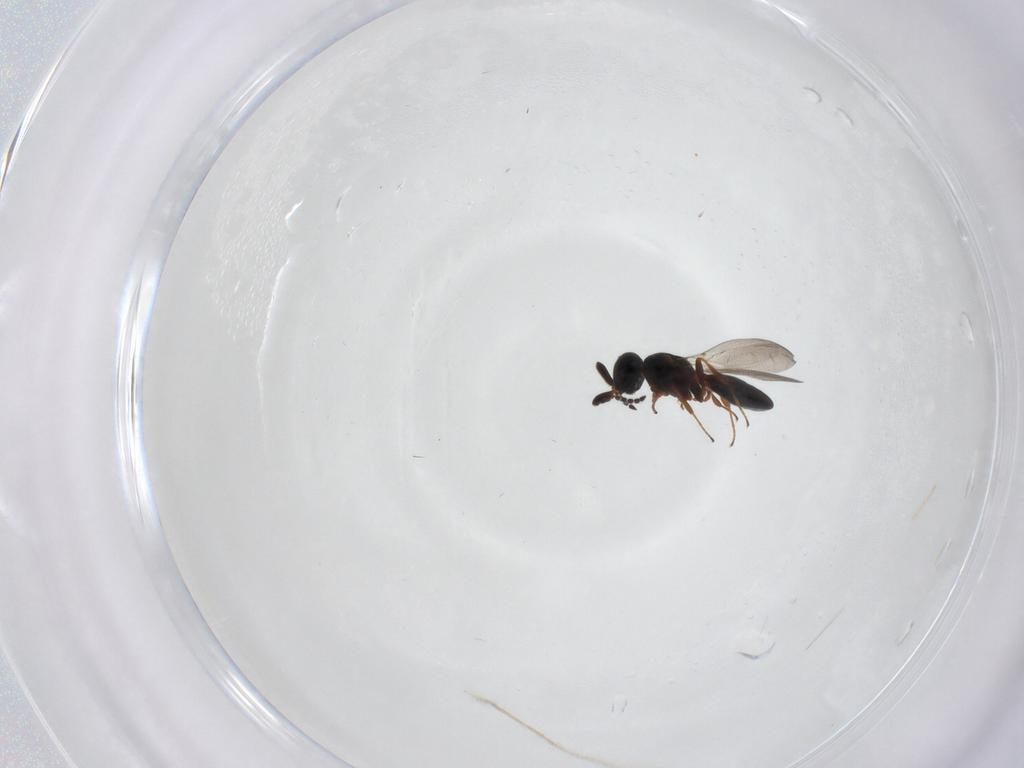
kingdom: Animalia
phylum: Arthropoda
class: Insecta
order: Hymenoptera
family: Platygastridae
